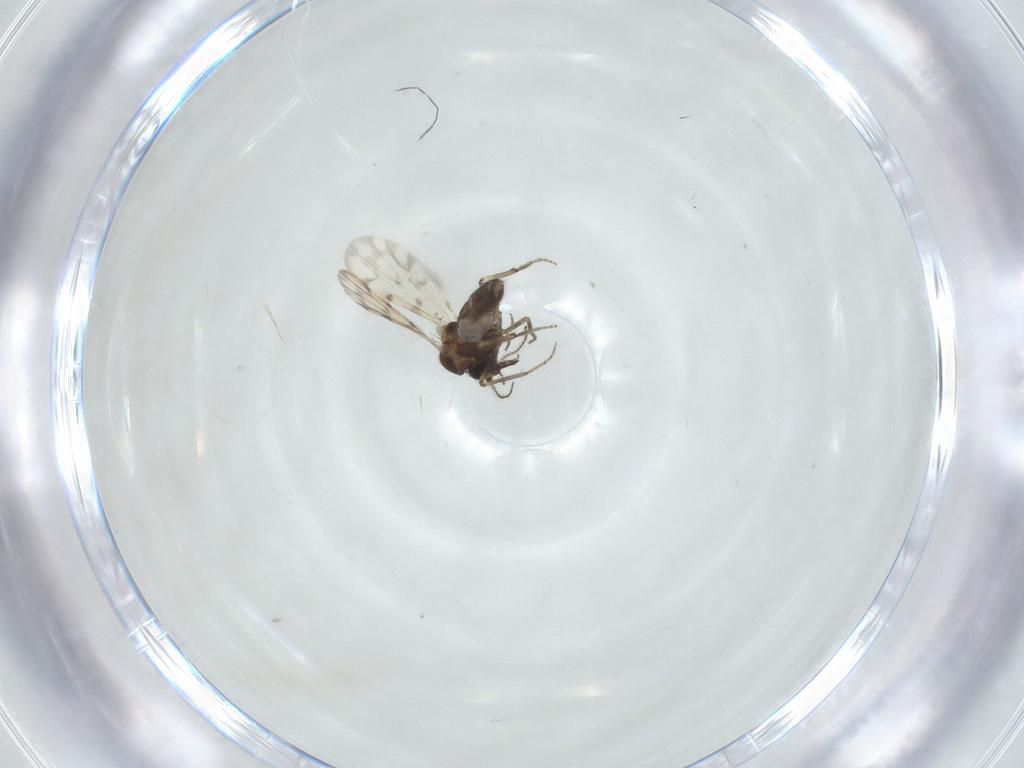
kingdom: Animalia
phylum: Arthropoda
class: Insecta
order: Diptera
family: Ceratopogonidae
